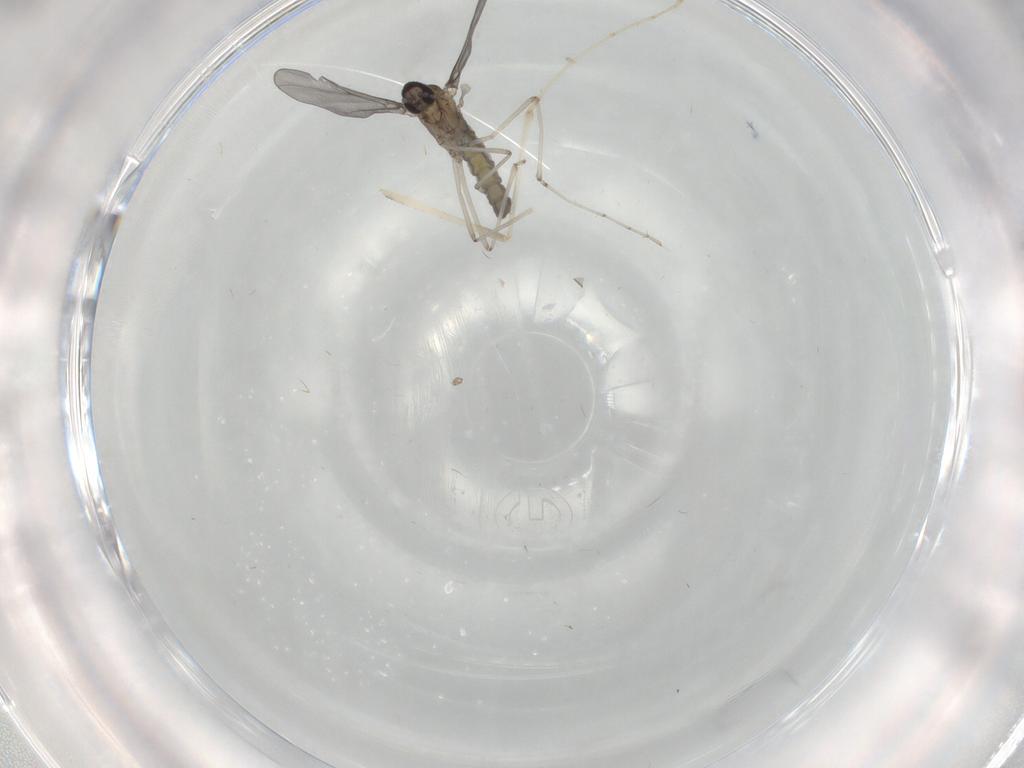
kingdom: Animalia
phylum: Arthropoda
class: Insecta
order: Diptera
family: Cecidomyiidae
